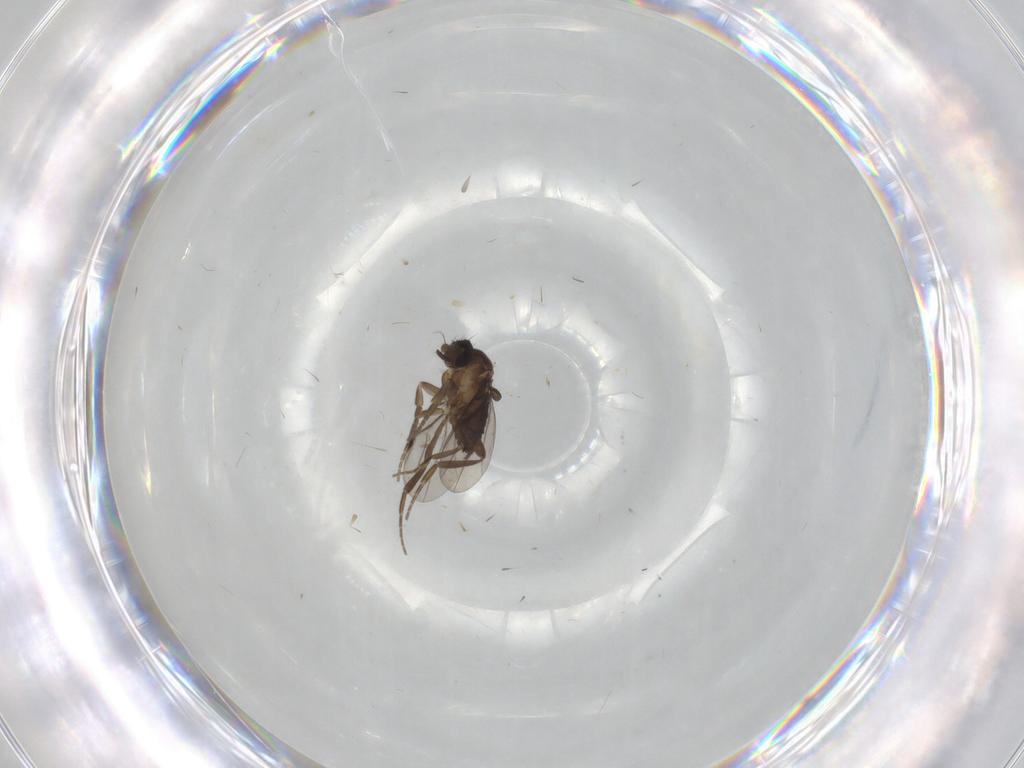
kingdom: Animalia
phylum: Arthropoda
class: Insecta
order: Diptera
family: Phoridae
